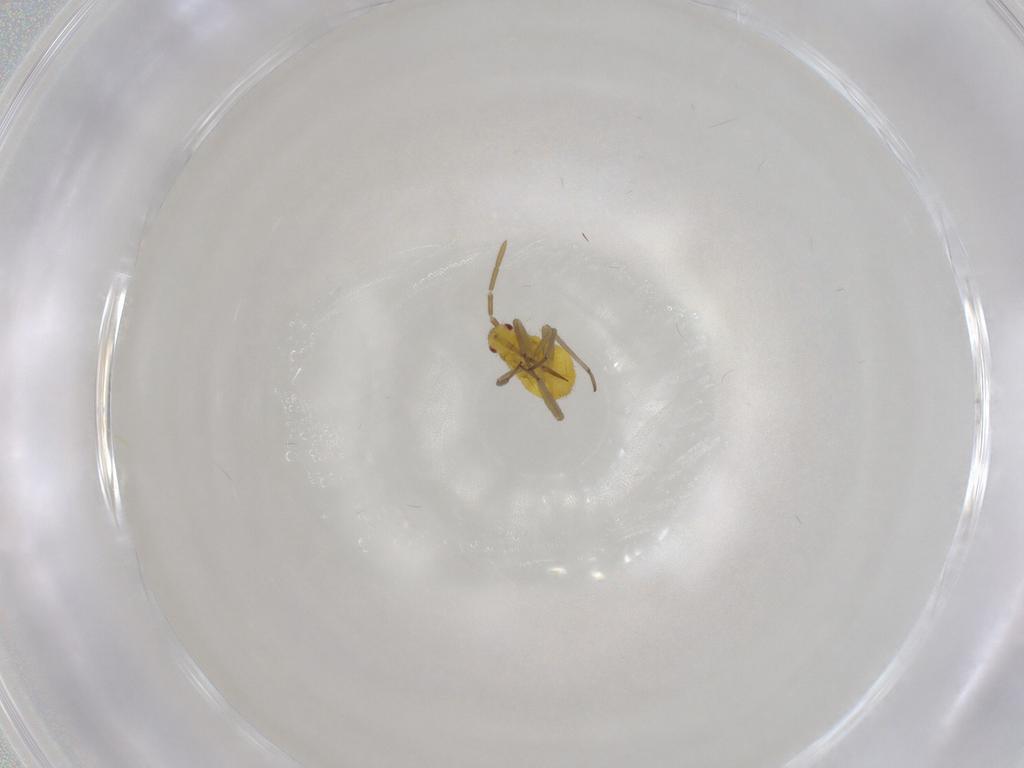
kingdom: Animalia
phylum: Arthropoda
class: Insecta
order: Hemiptera
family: Miridae
